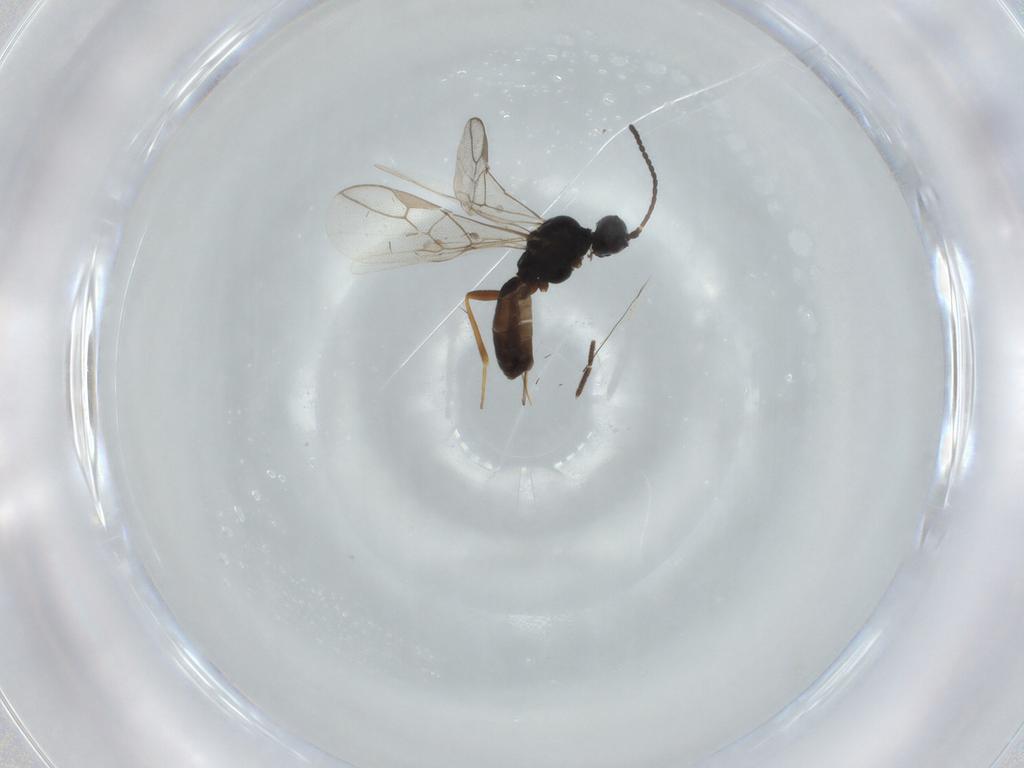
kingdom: Animalia
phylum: Arthropoda
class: Insecta
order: Hymenoptera
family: Braconidae
